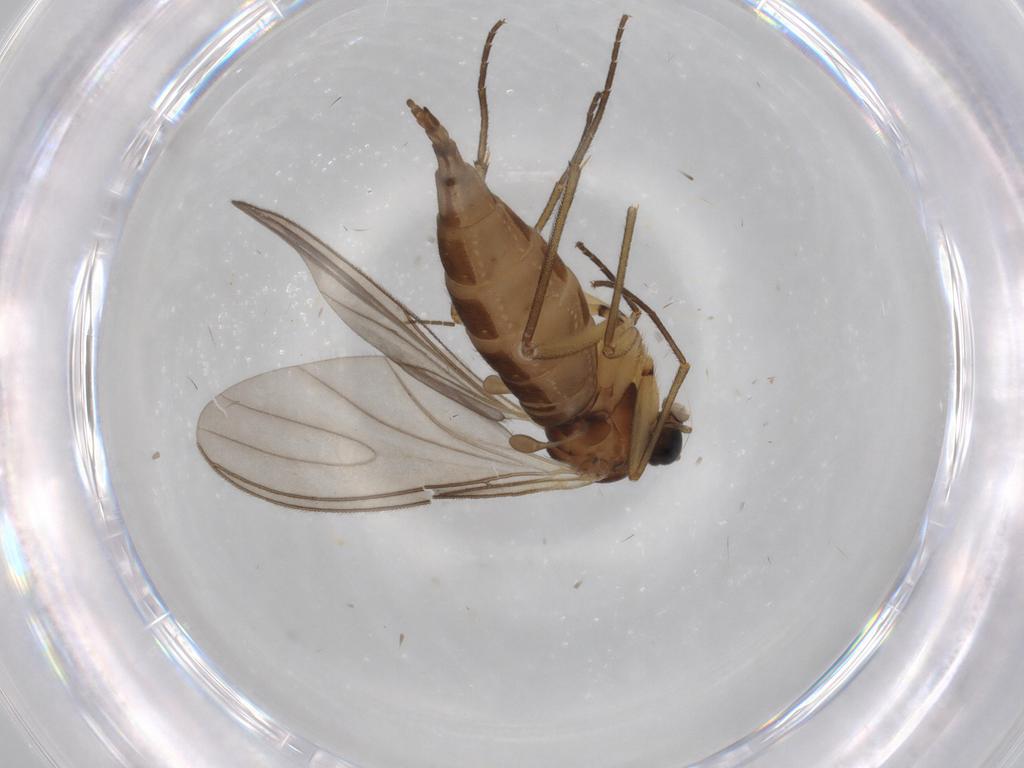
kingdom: Animalia
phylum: Arthropoda
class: Insecta
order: Diptera
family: Sciaridae
